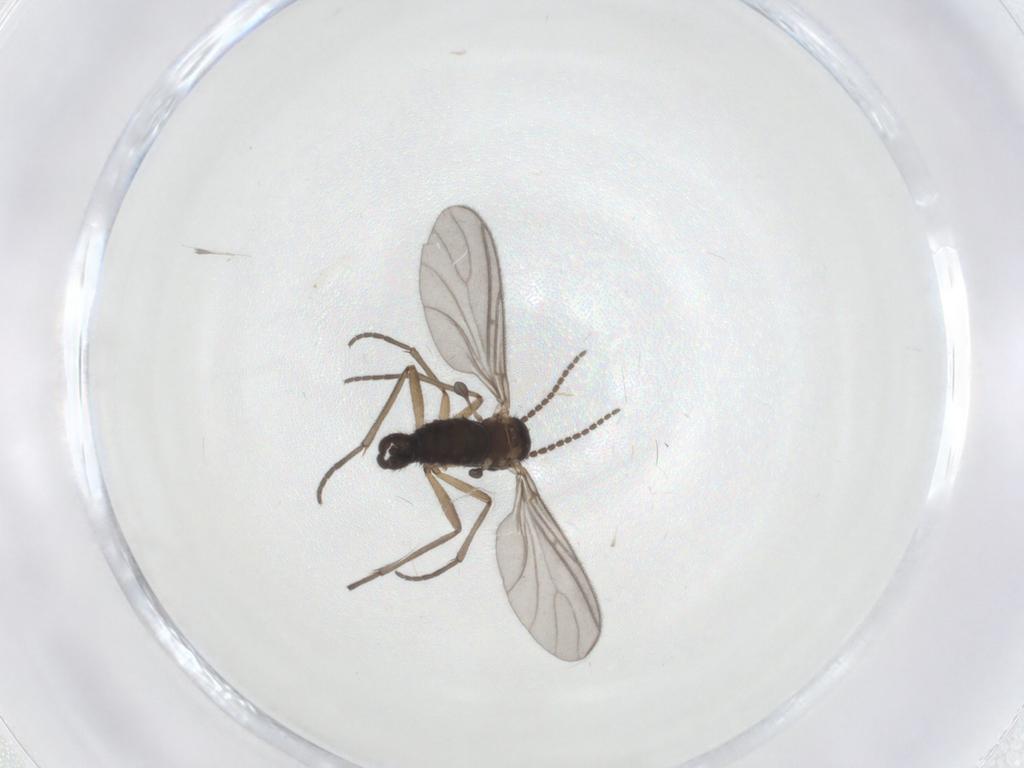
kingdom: Animalia
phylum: Arthropoda
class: Insecta
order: Diptera
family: Sciaridae
